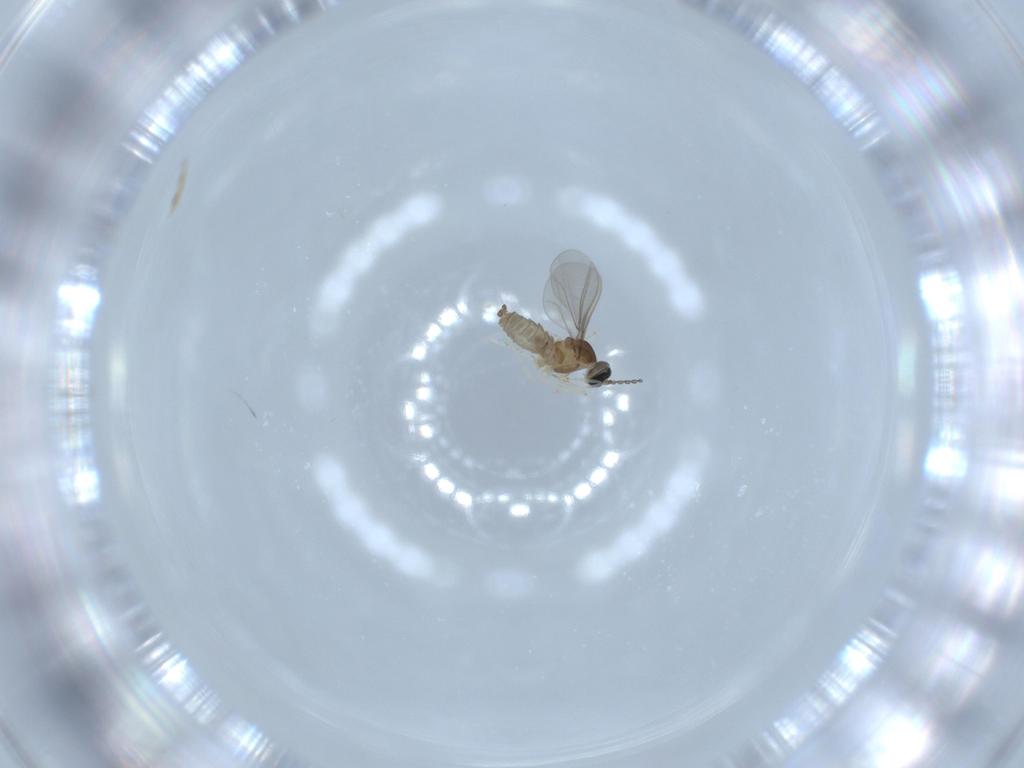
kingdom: Animalia
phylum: Arthropoda
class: Insecta
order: Diptera
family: Cecidomyiidae
